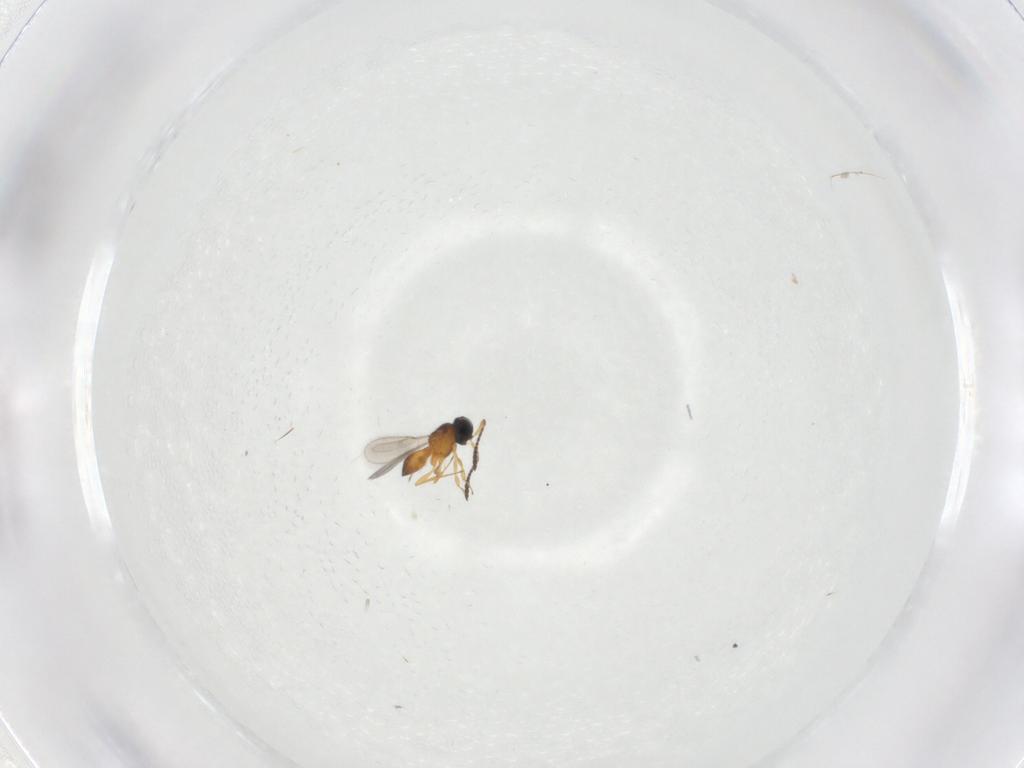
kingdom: Animalia
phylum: Arthropoda
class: Insecta
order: Hymenoptera
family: Scelionidae
